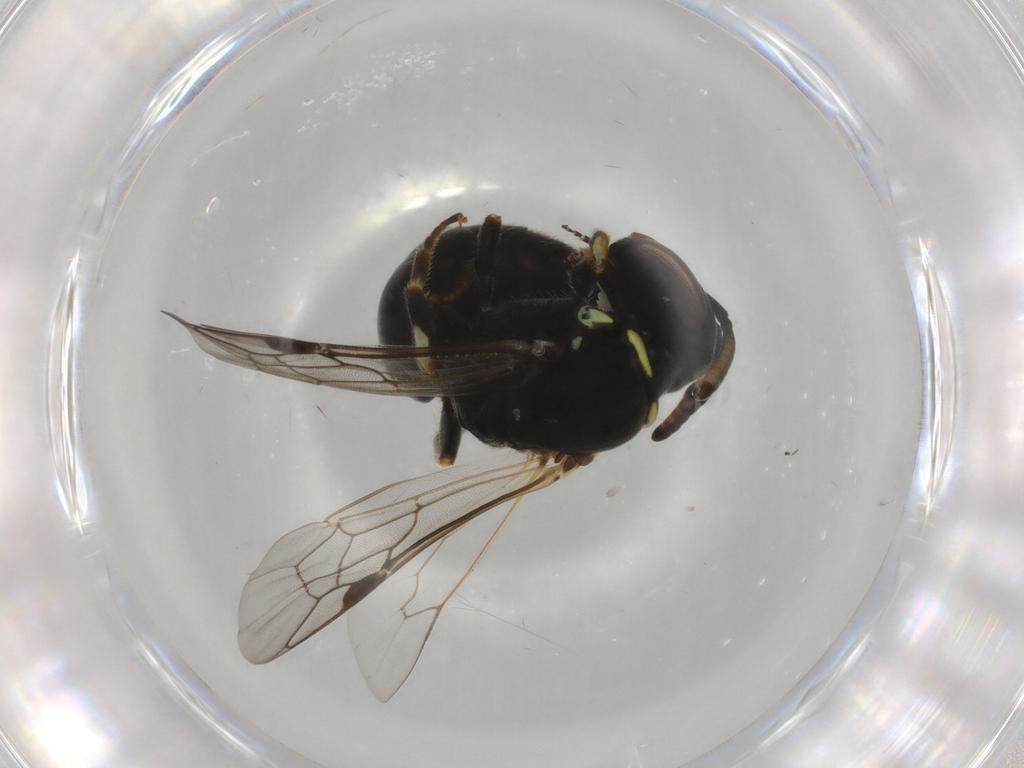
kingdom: Animalia
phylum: Arthropoda
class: Insecta
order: Hymenoptera
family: Colletidae
